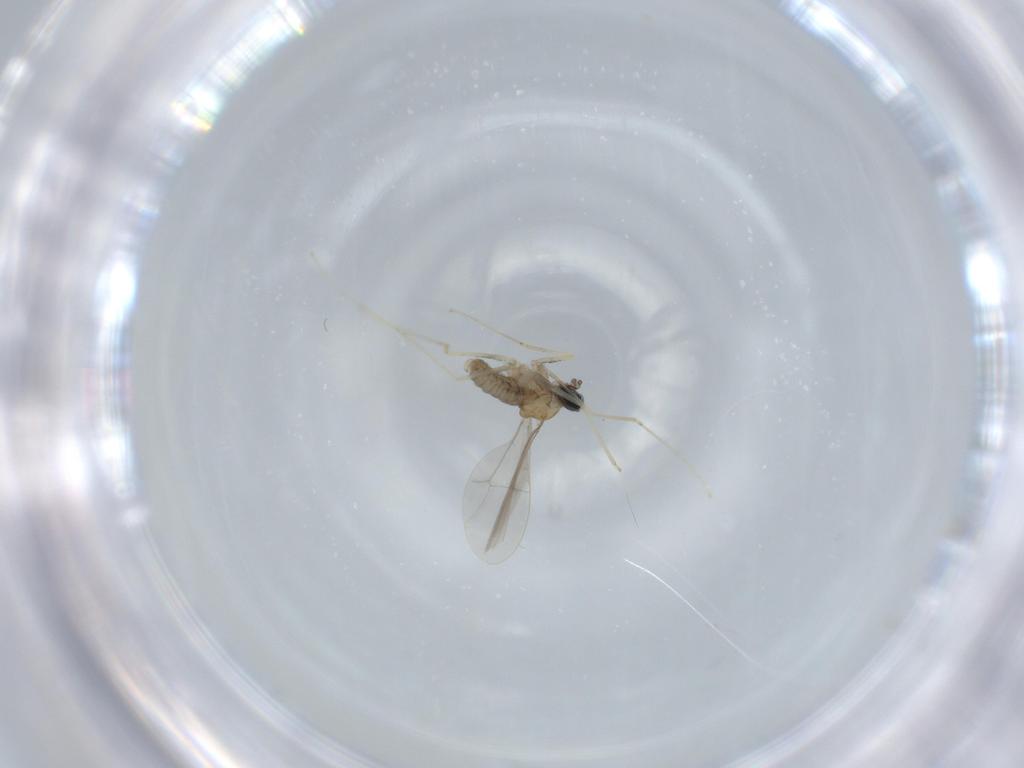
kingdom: Animalia
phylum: Arthropoda
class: Insecta
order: Diptera
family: Cecidomyiidae
